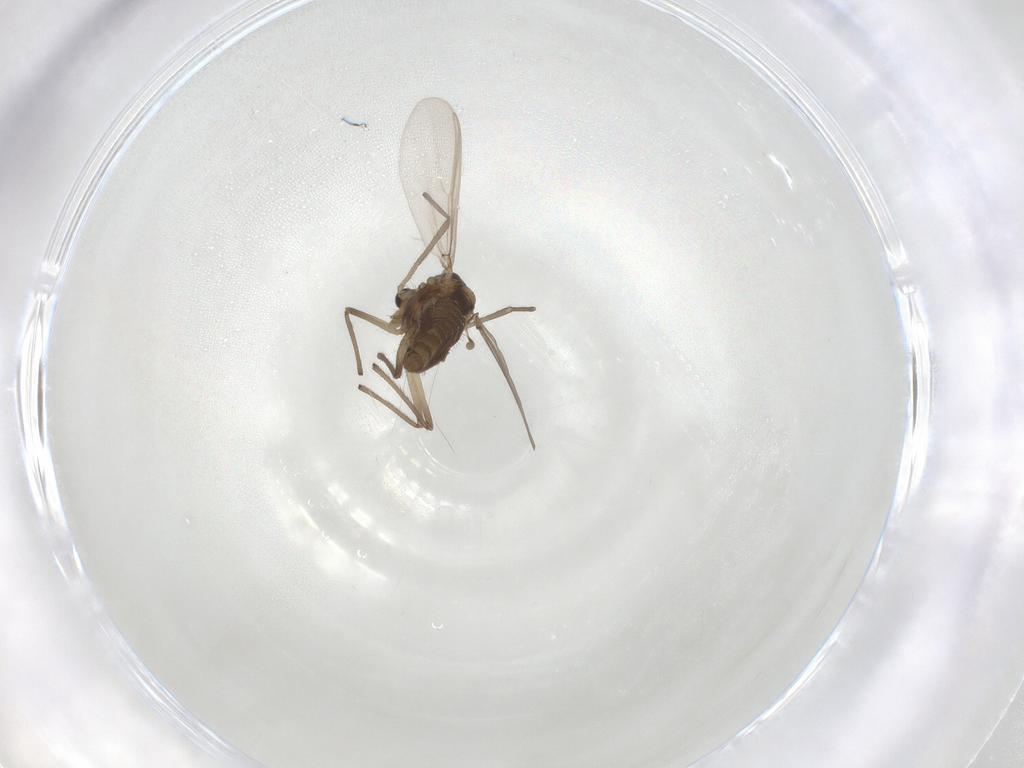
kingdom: Animalia
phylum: Arthropoda
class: Insecta
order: Diptera
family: Chironomidae
